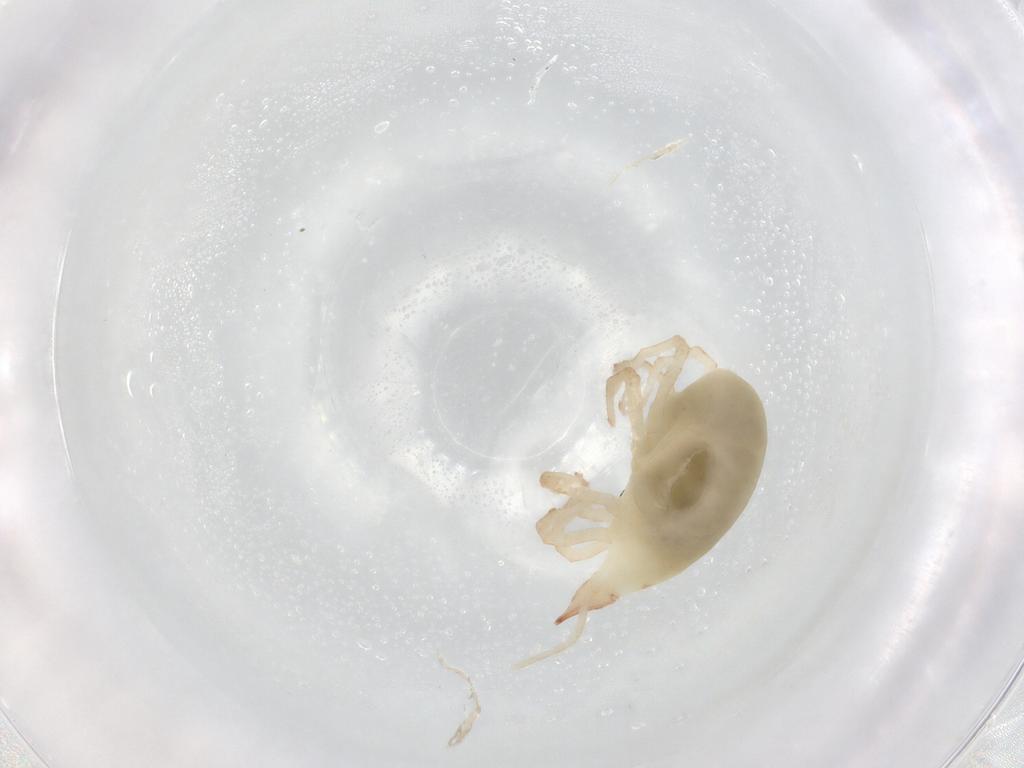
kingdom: Animalia
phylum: Arthropoda
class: Arachnida
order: Trombidiformes
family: Bdellidae
